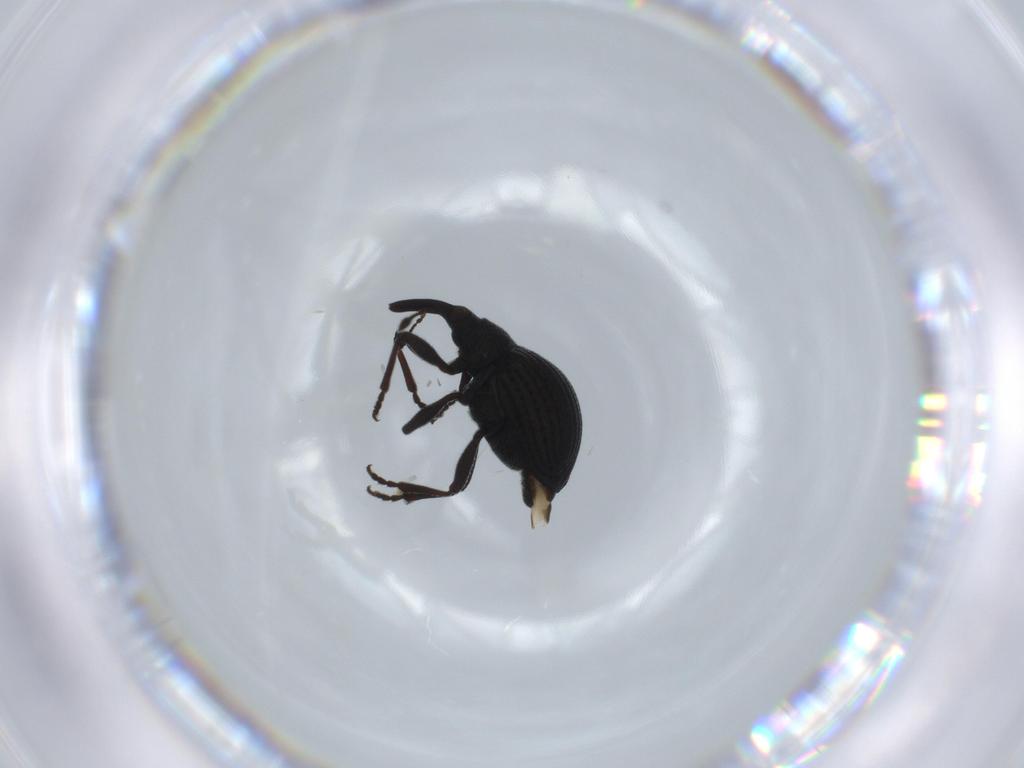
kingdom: Animalia
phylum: Arthropoda
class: Insecta
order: Coleoptera
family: Brentidae
